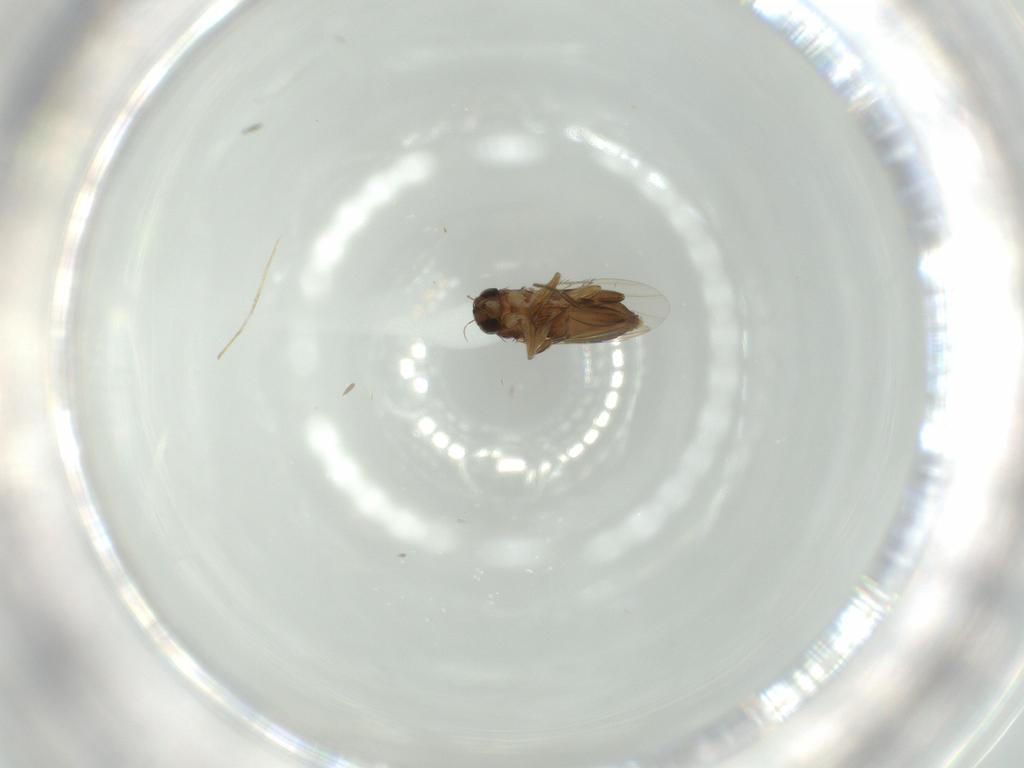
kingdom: Animalia
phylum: Arthropoda
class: Insecta
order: Diptera
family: Phoridae
